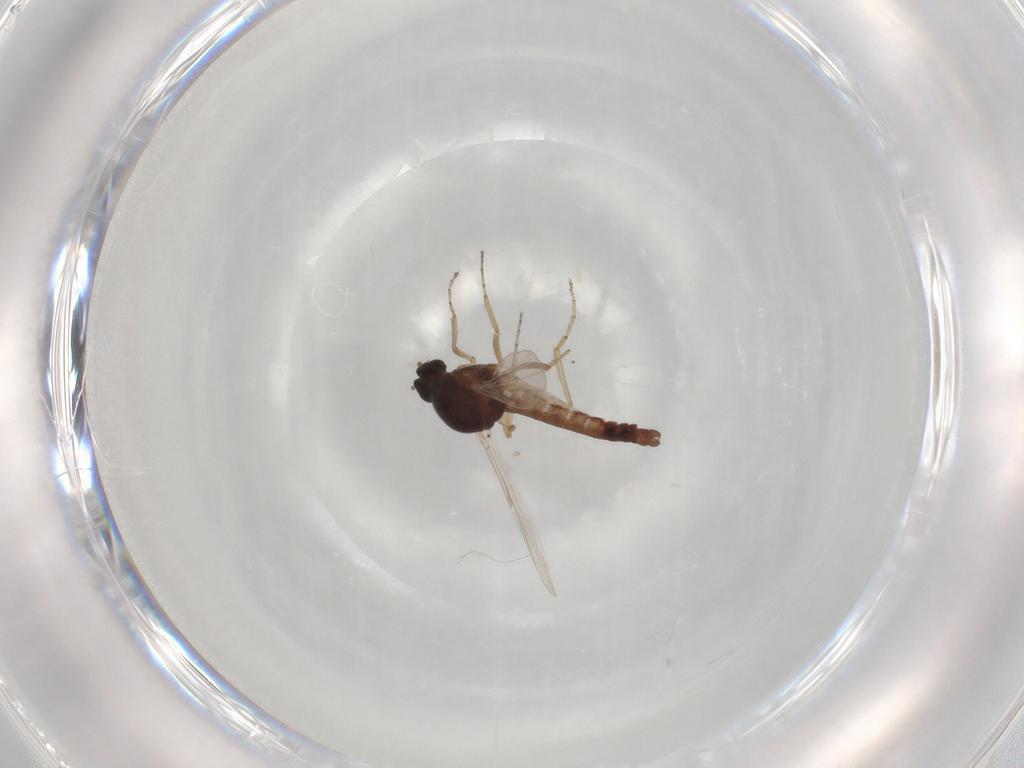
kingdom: Animalia
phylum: Arthropoda
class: Insecta
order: Diptera
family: Ceratopogonidae
